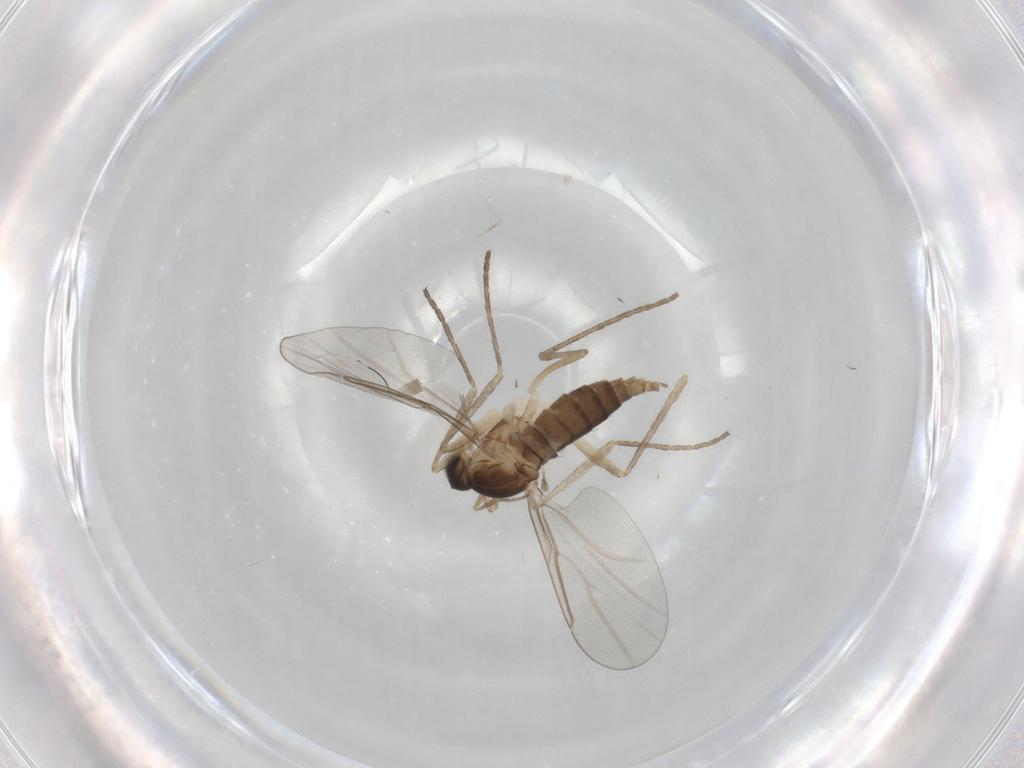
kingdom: Animalia
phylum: Arthropoda
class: Insecta
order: Diptera
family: Cecidomyiidae
